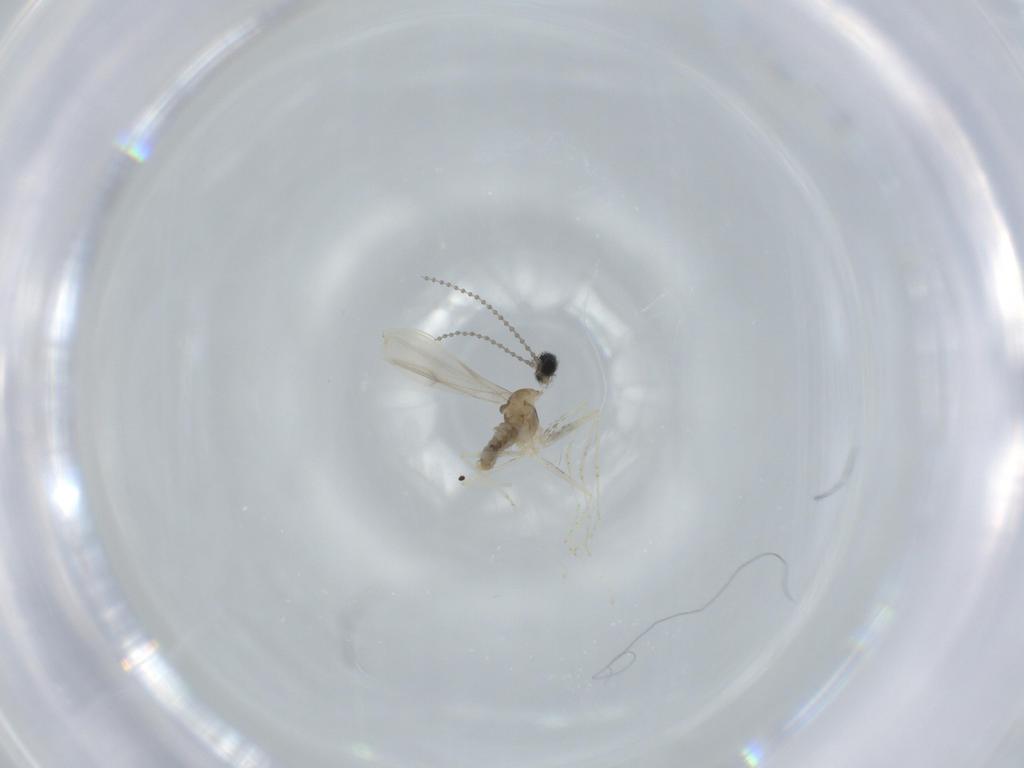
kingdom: Animalia
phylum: Arthropoda
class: Insecta
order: Diptera
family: Cecidomyiidae
